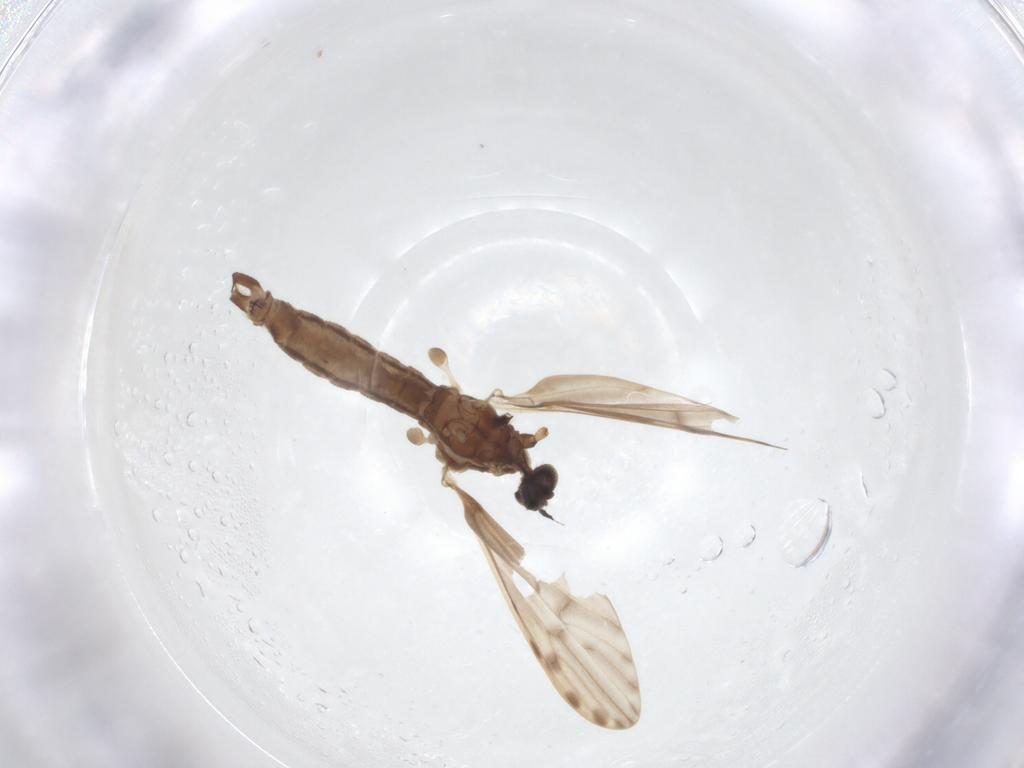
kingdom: Animalia
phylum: Arthropoda
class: Insecta
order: Diptera
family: Limoniidae
